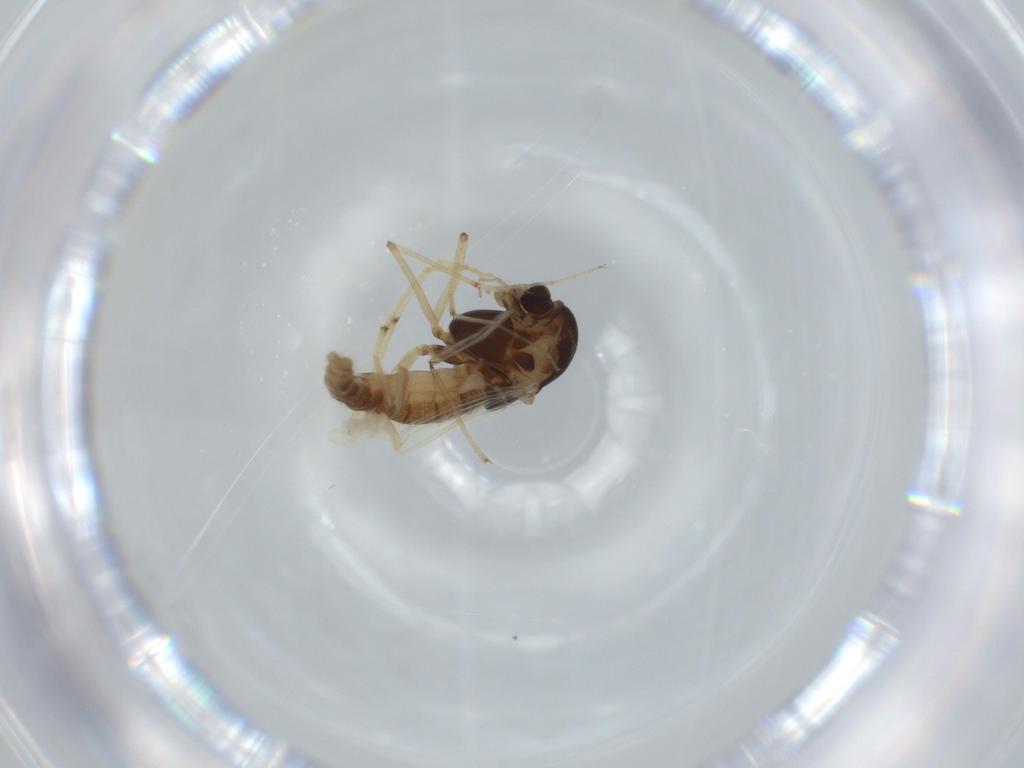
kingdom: Animalia
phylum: Arthropoda
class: Insecta
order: Diptera
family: Chironomidae
